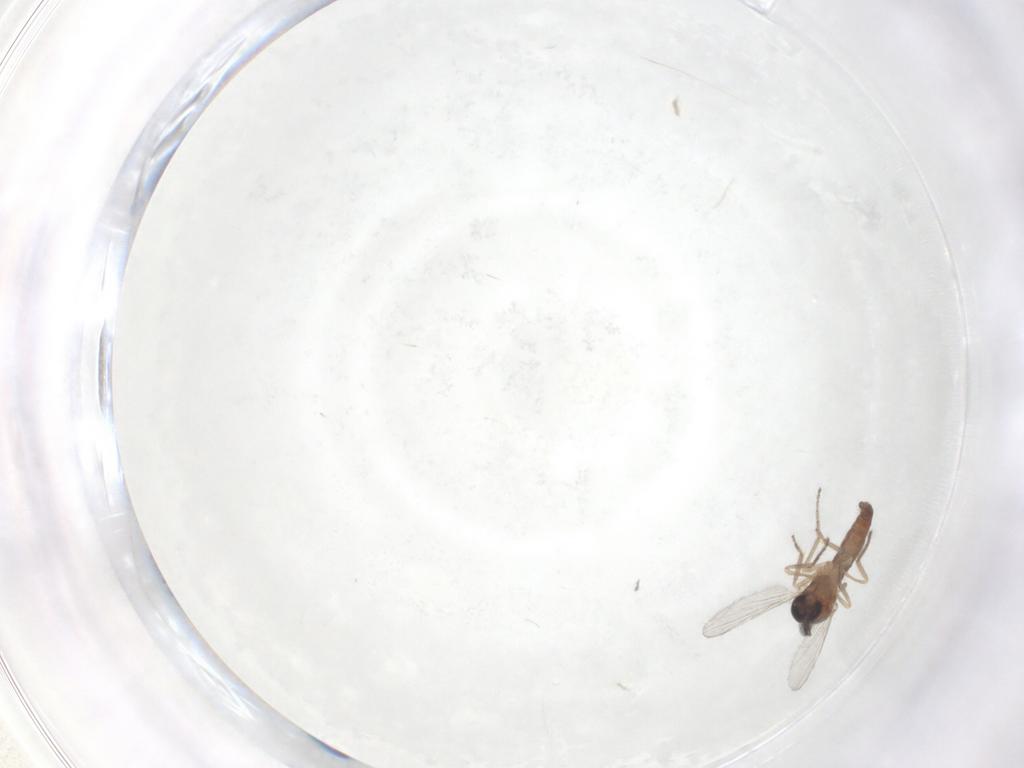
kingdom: Animalia
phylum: Arthropoda
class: Insecta
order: Diptera
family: Ceratopogonidae
